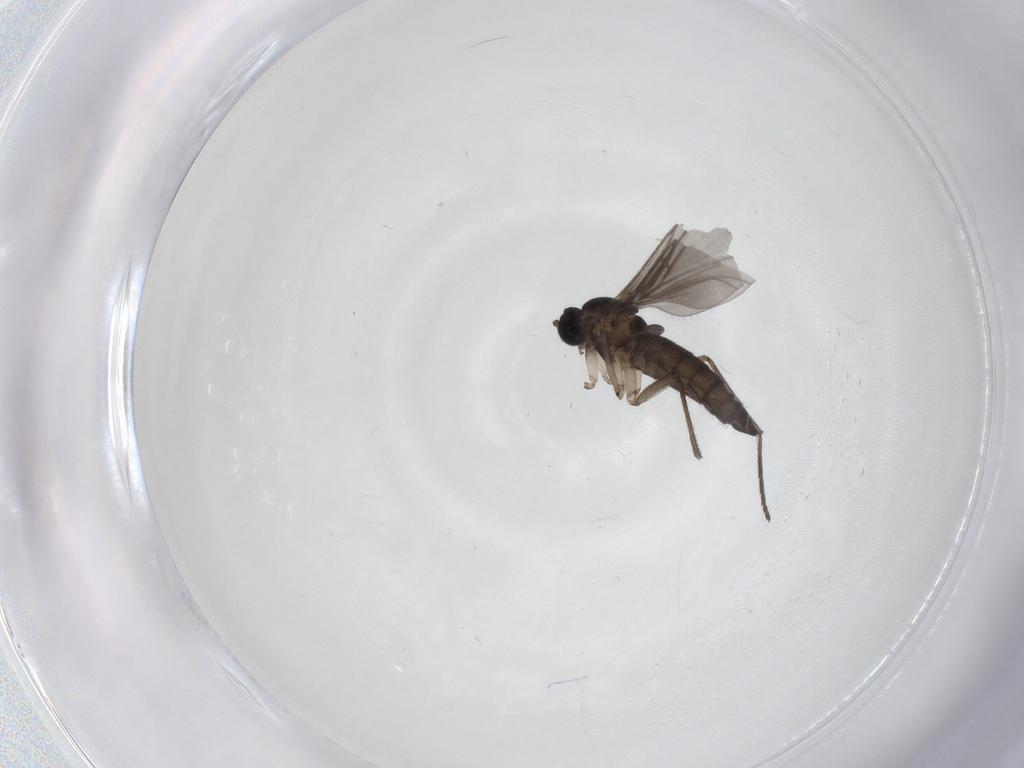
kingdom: Animalia
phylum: Arthropoda
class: Insecta
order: Diptera
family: Sciaridae
